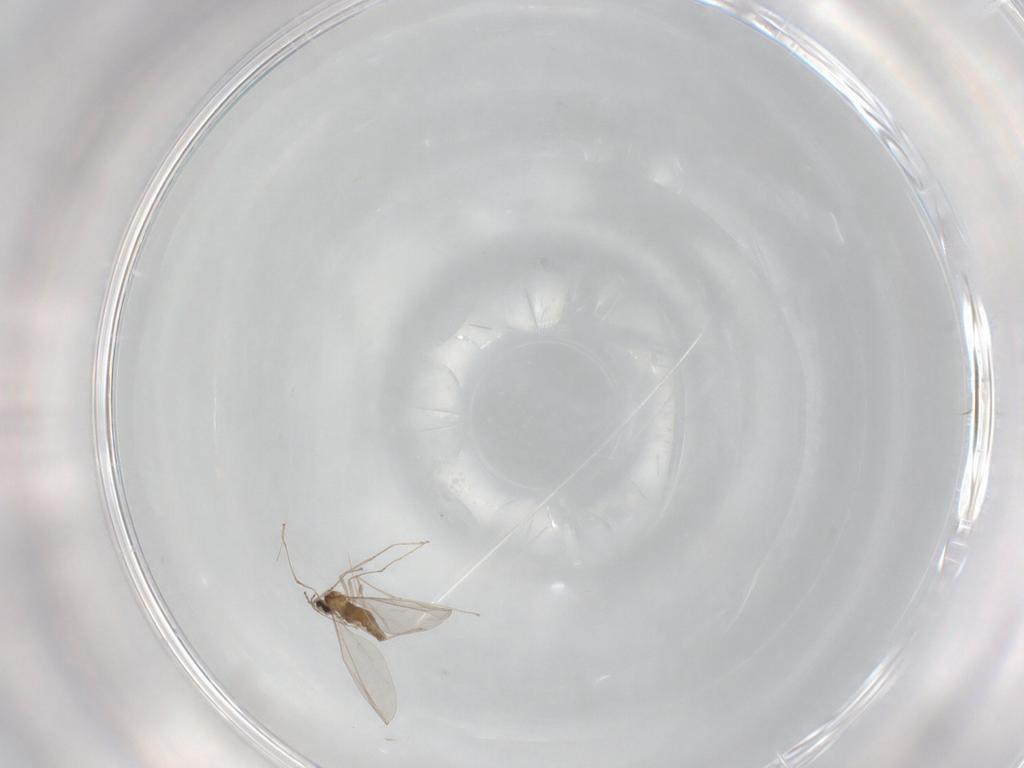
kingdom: Animalia
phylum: Arthropoda
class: Insecta
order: Diptera
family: Cecidomyiidae
